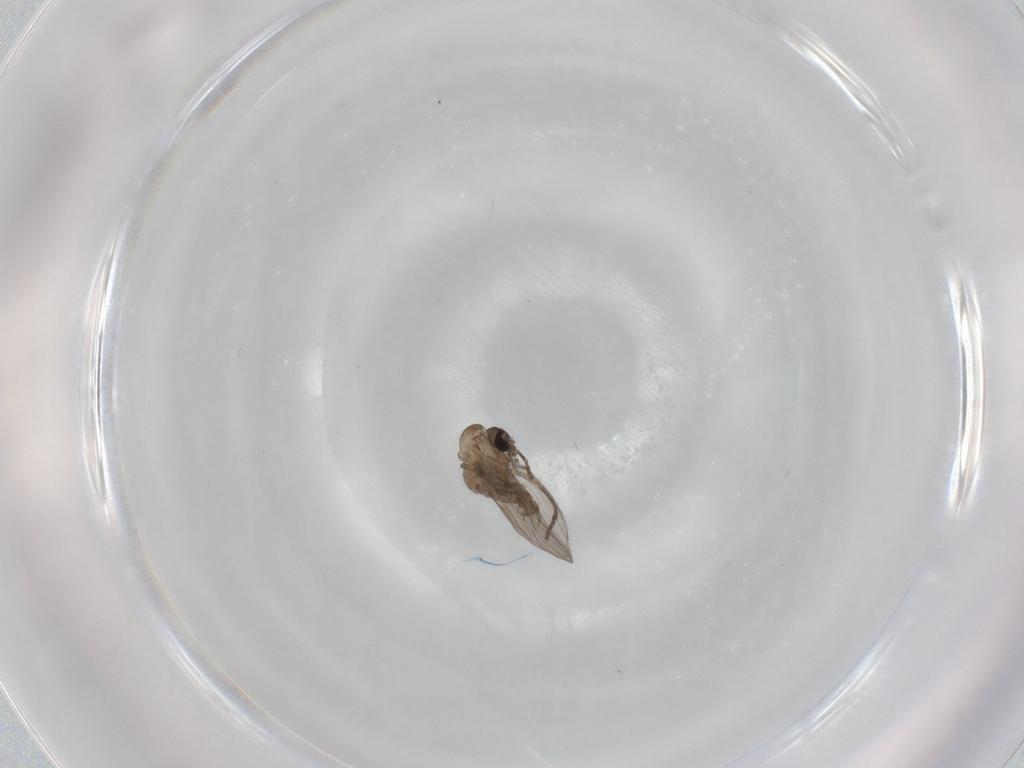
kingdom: Animalia
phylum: Arthropoda
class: Insecta
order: Diptera
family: Psychodidae
